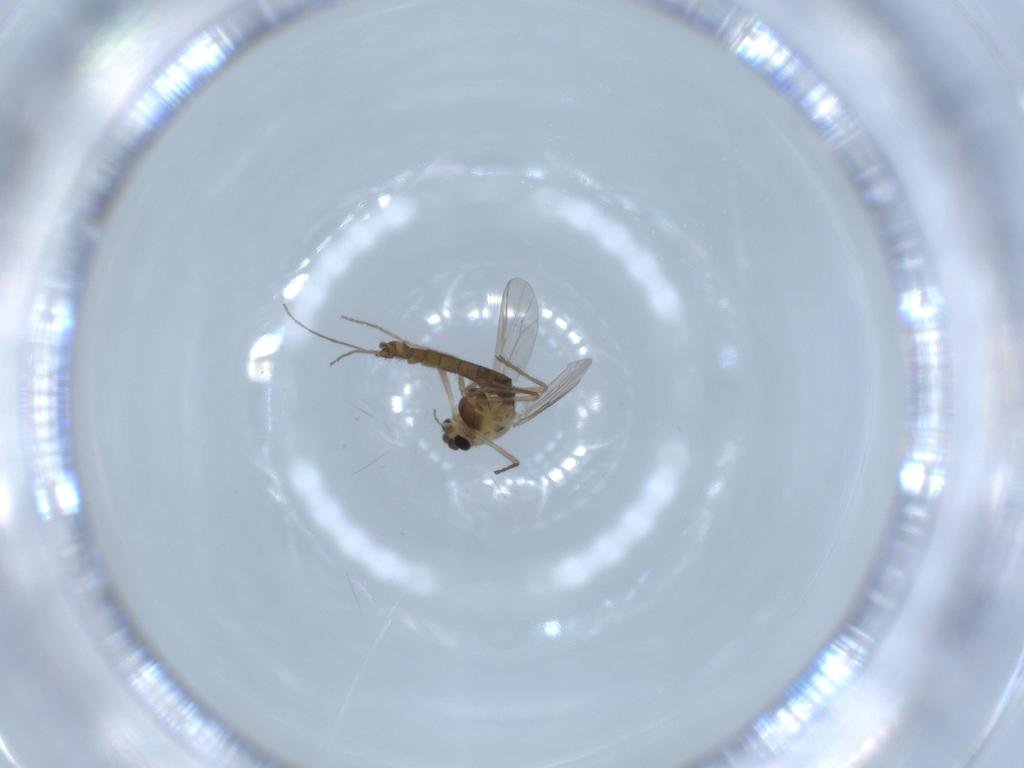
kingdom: Animalia
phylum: Arthropoda
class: Insecta
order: Diptera
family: Chironomidae
